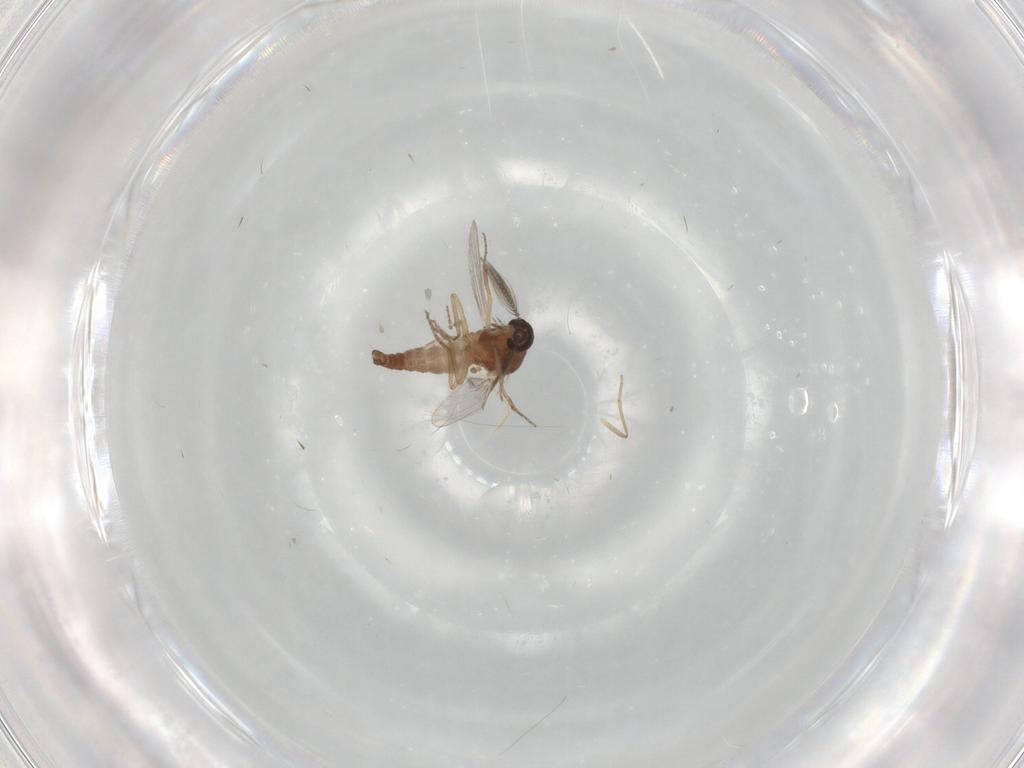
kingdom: Animalia
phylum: Arthropoda
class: Insecta
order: Diptera
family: Ceratopogonidae
